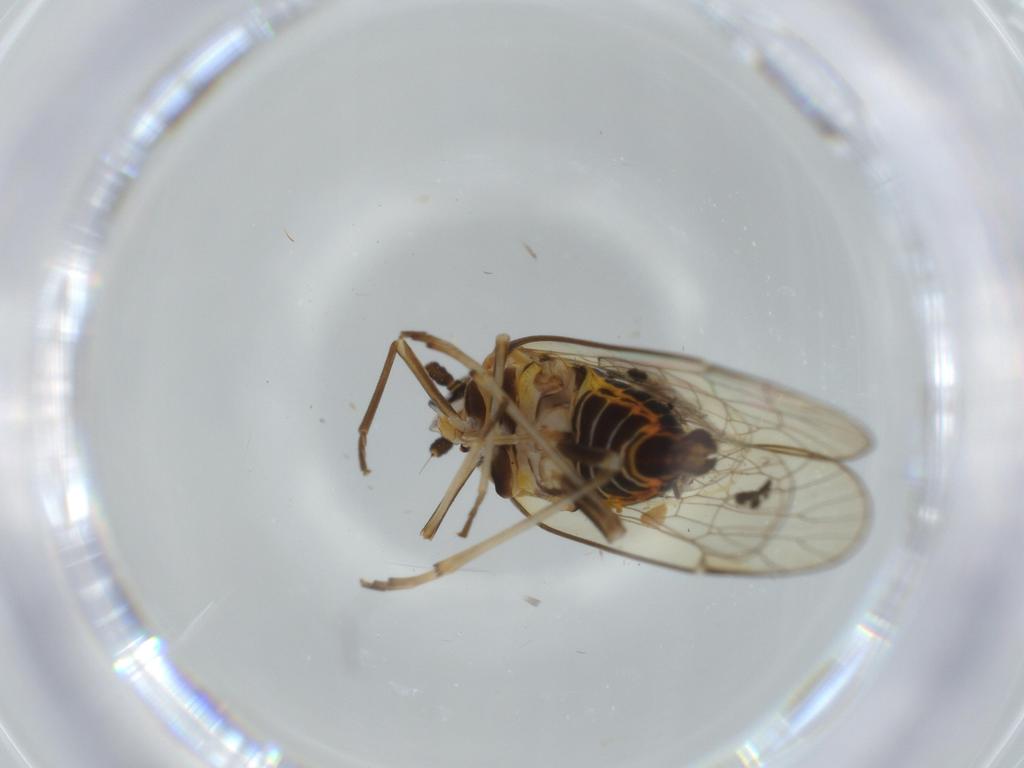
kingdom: Animalia
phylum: Arthropoda
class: Insecta
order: Hemiptera
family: Kinnaridae
